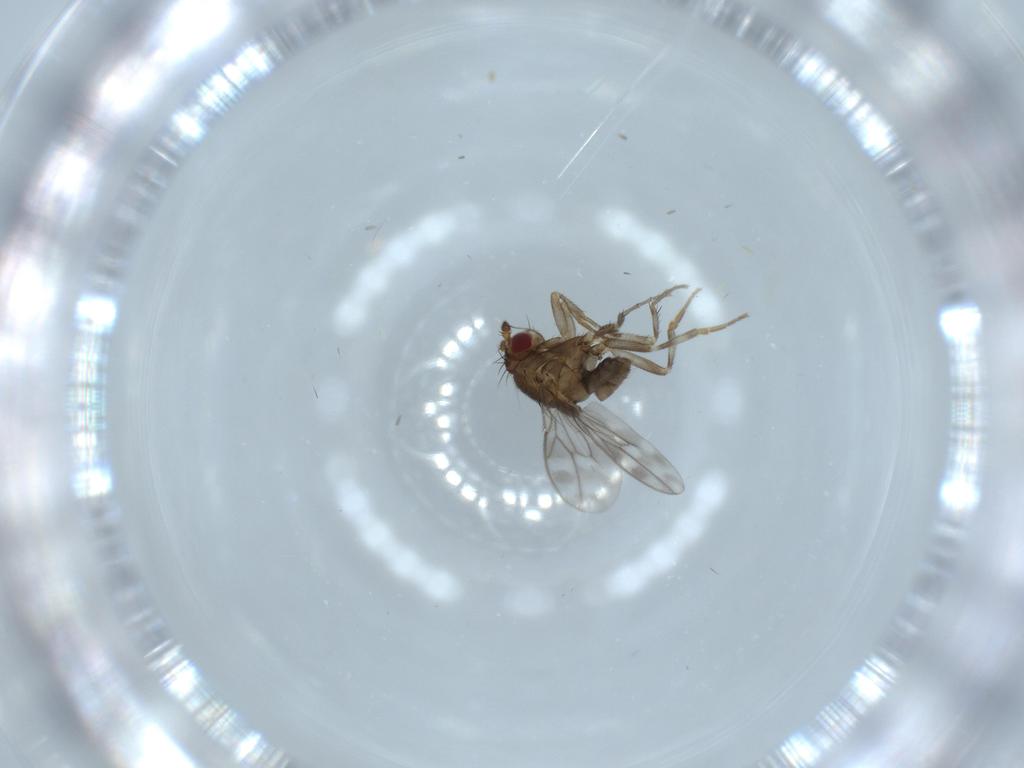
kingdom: Animalia
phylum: Arthropoda
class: Insecta
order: Diptera
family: Sphaeroceridae
